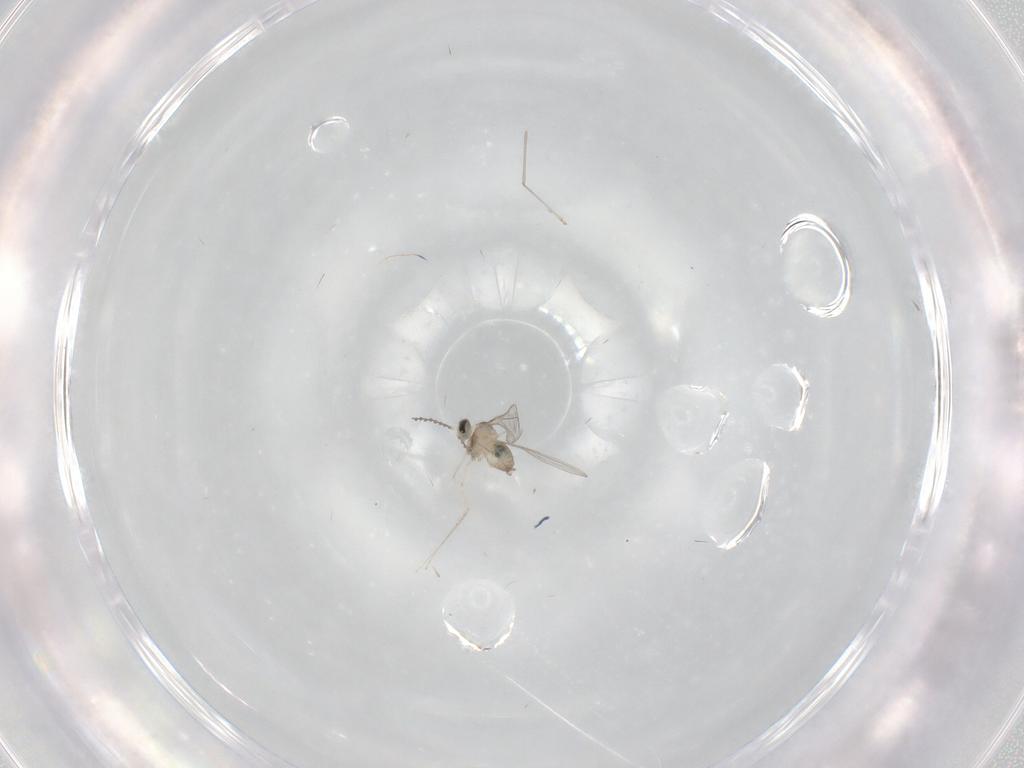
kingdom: Animalia
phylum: Arthropoda
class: Insecta
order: Diptera
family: Cecidomyiidae
